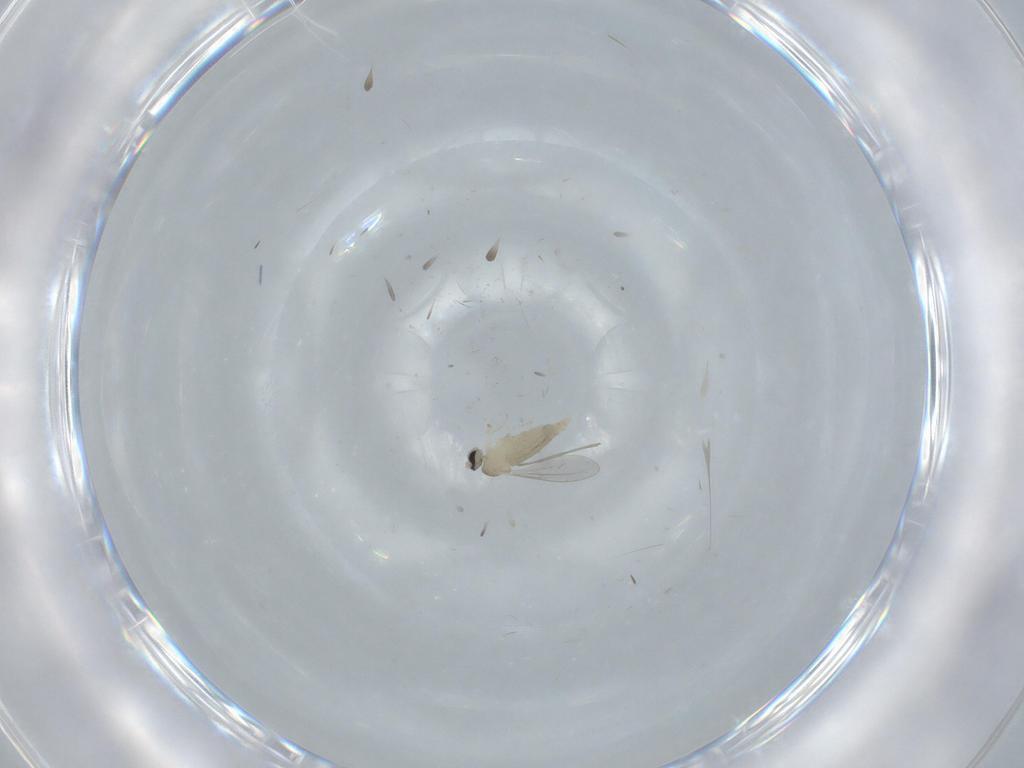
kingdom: Animalia
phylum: Arthropoda
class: Insecta
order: Diptera
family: Cecidomyiidae
